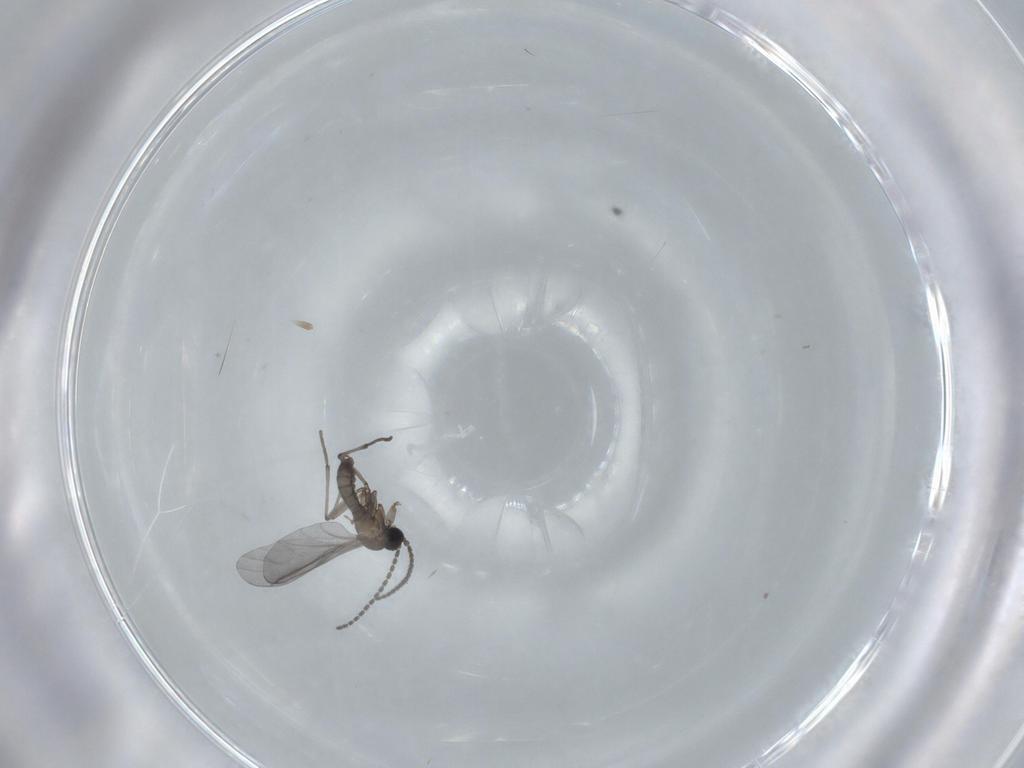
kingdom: Animalia
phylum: Arthropoda
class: Insecta
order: Diptera
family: Sciaridae
